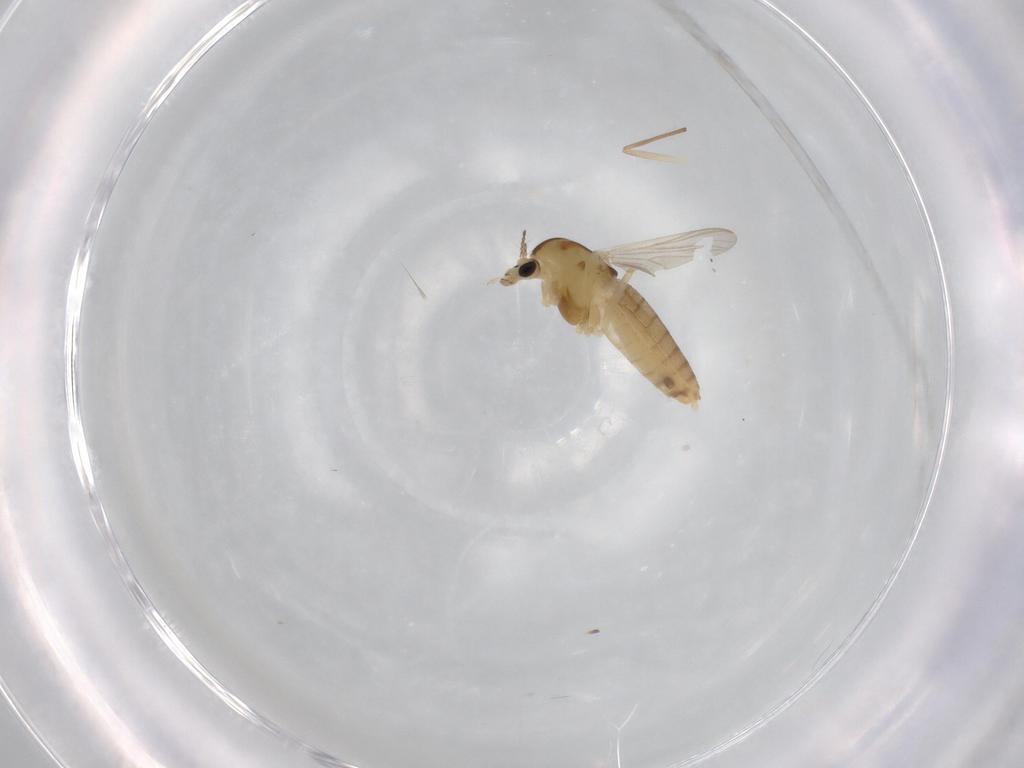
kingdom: Animalia
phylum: Arthropoda
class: Insecta
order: Diptera
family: Chironomidae
